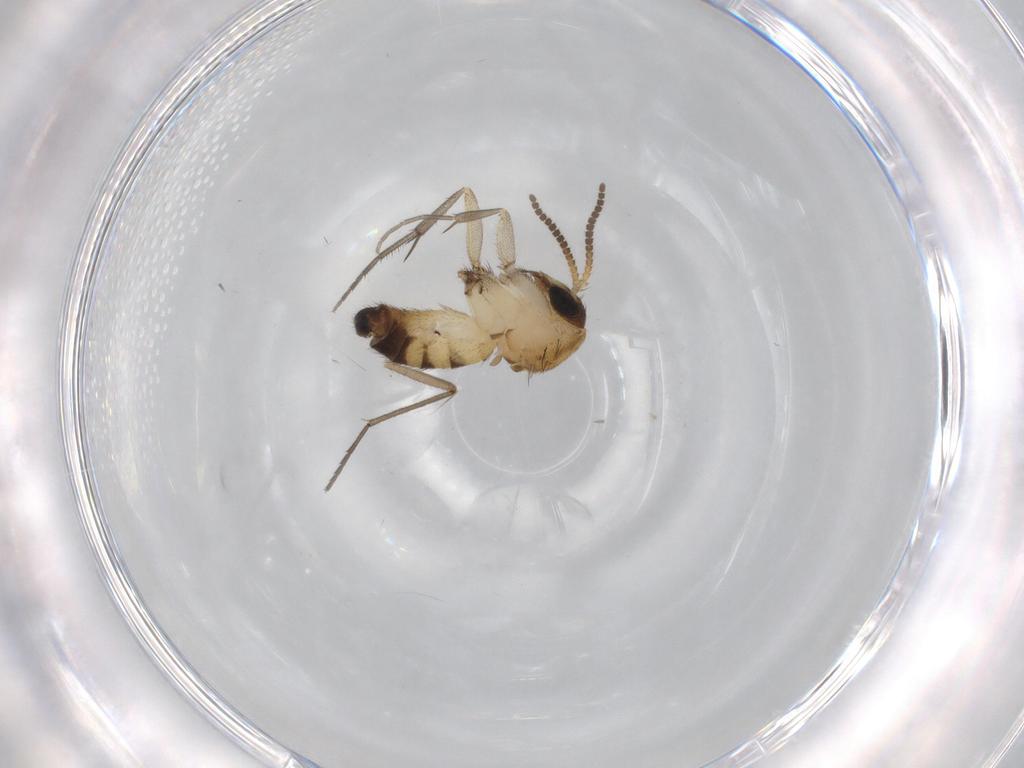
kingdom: Animalia
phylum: Arthropoda
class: Insecta
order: Diptera
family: Mycetophilidae
